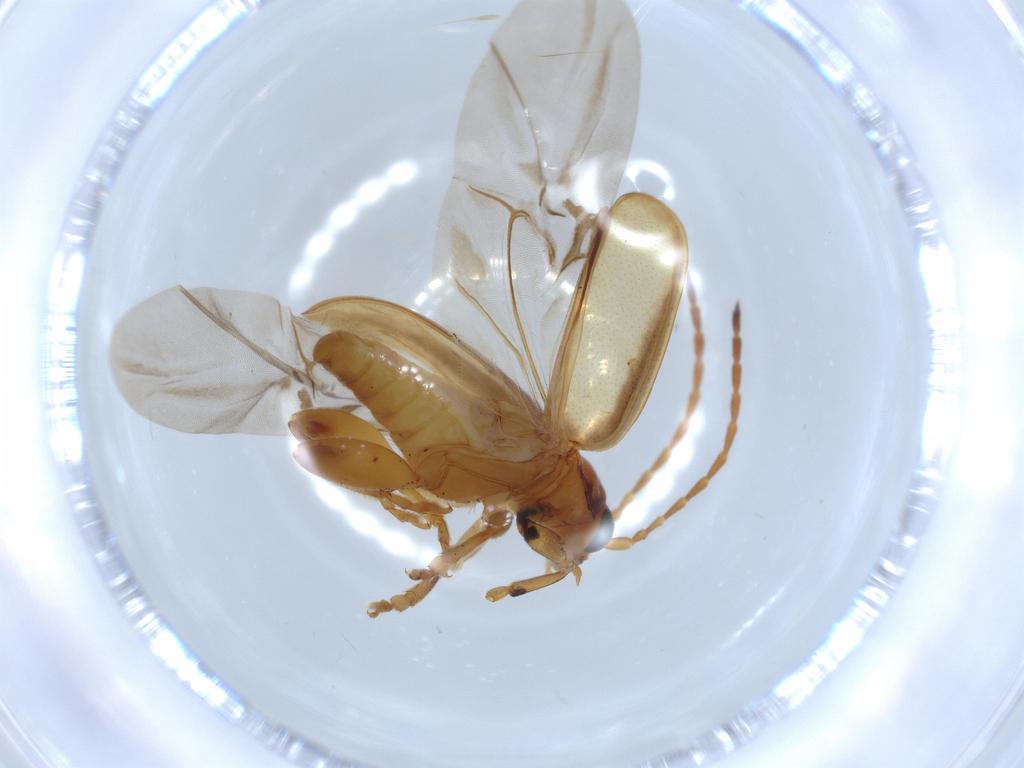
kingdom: Animalia
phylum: Arthropoda
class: Insecta
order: Coleoptera
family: Chrysomelidae
